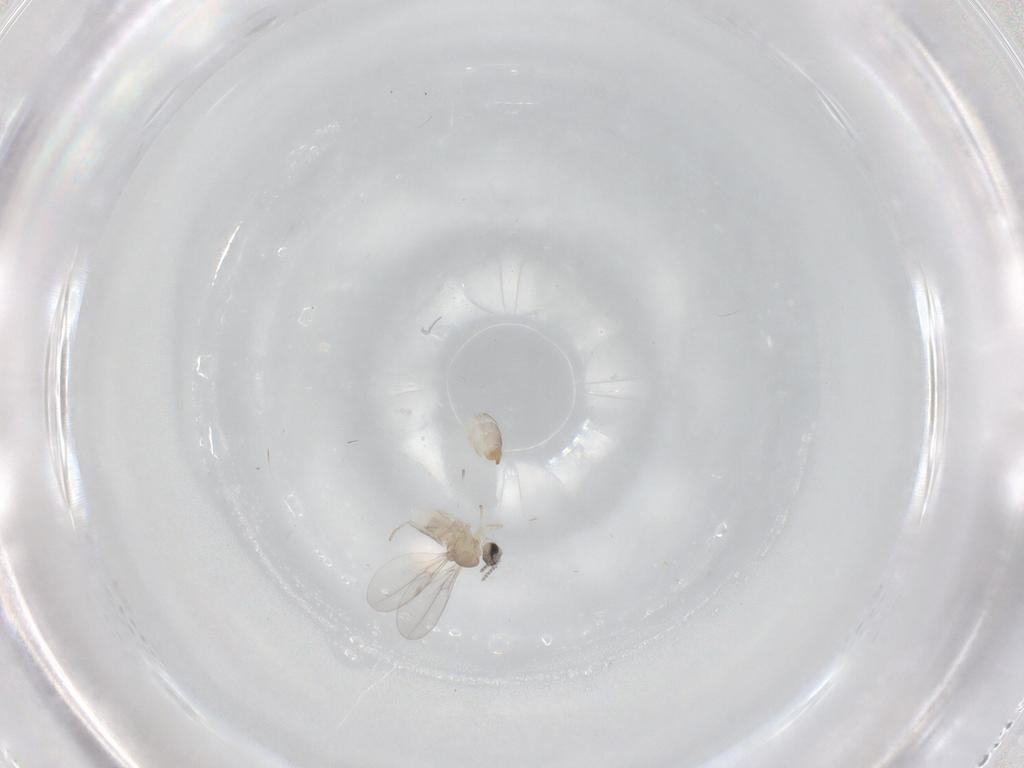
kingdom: Animalia
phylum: Arthropoda
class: Insecta
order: Diptera
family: Cecidomyiidae
